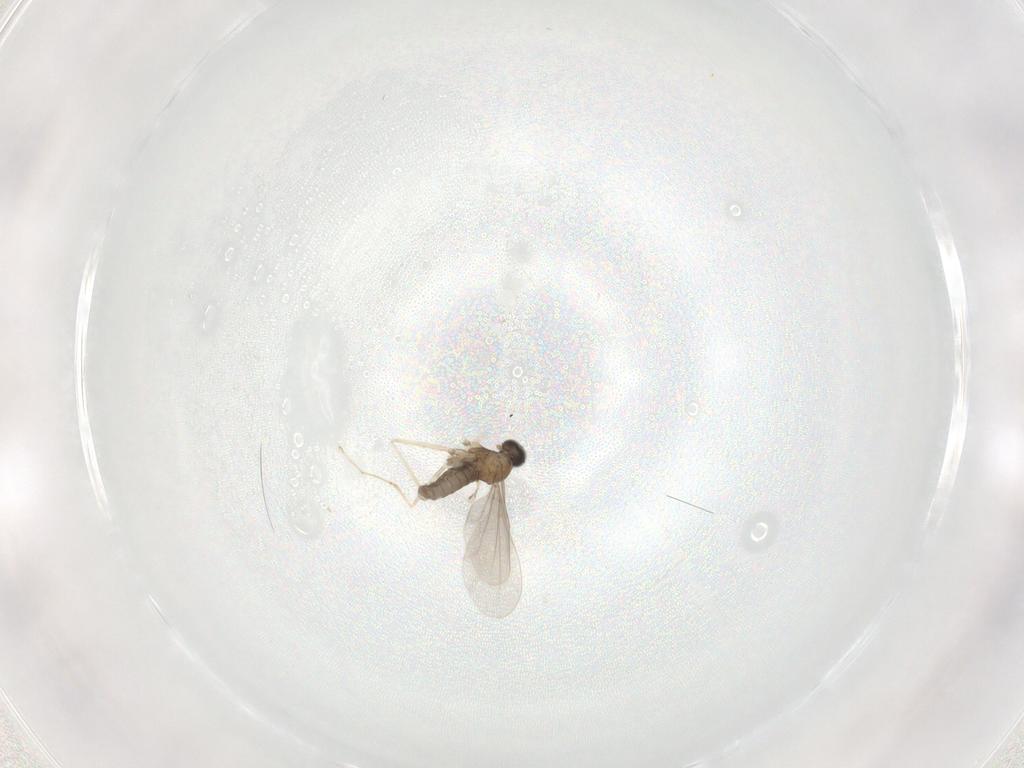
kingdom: Animalia
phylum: Arthropoda
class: Insecta
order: Diptera
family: Cecidomyiidae
